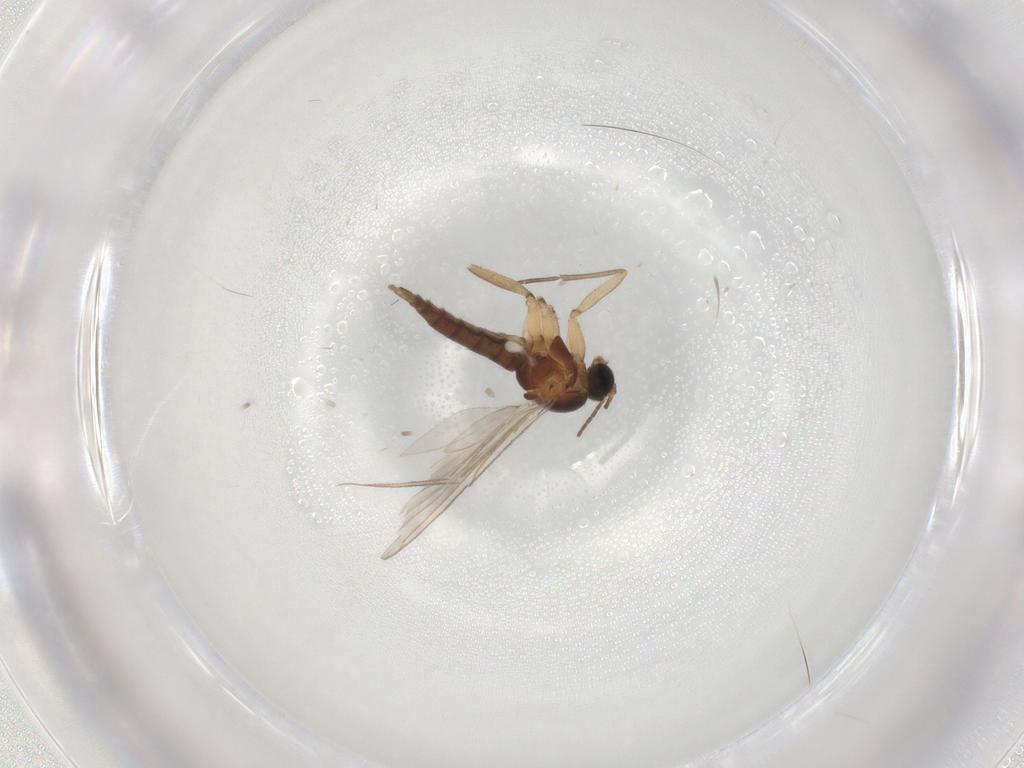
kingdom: Animalia
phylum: Arthropoda
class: Insecta
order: Diptera
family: Sciaridae
